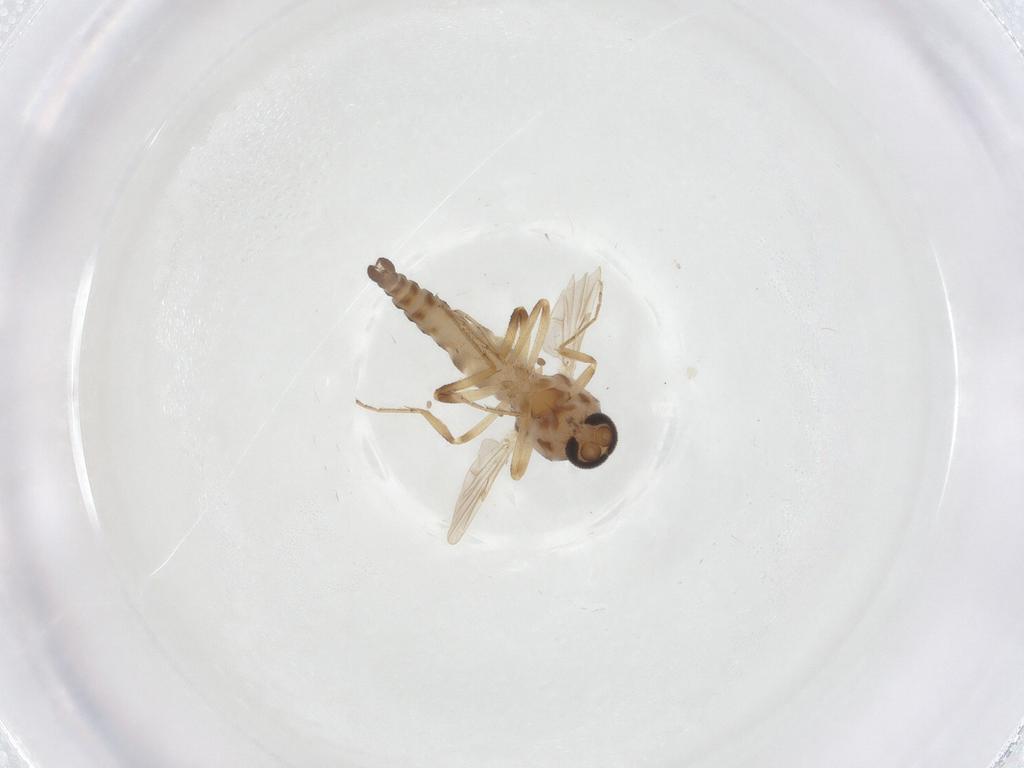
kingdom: Animalia
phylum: Arthropoda
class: Insecta
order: Diptera
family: Ceratopogonidae
